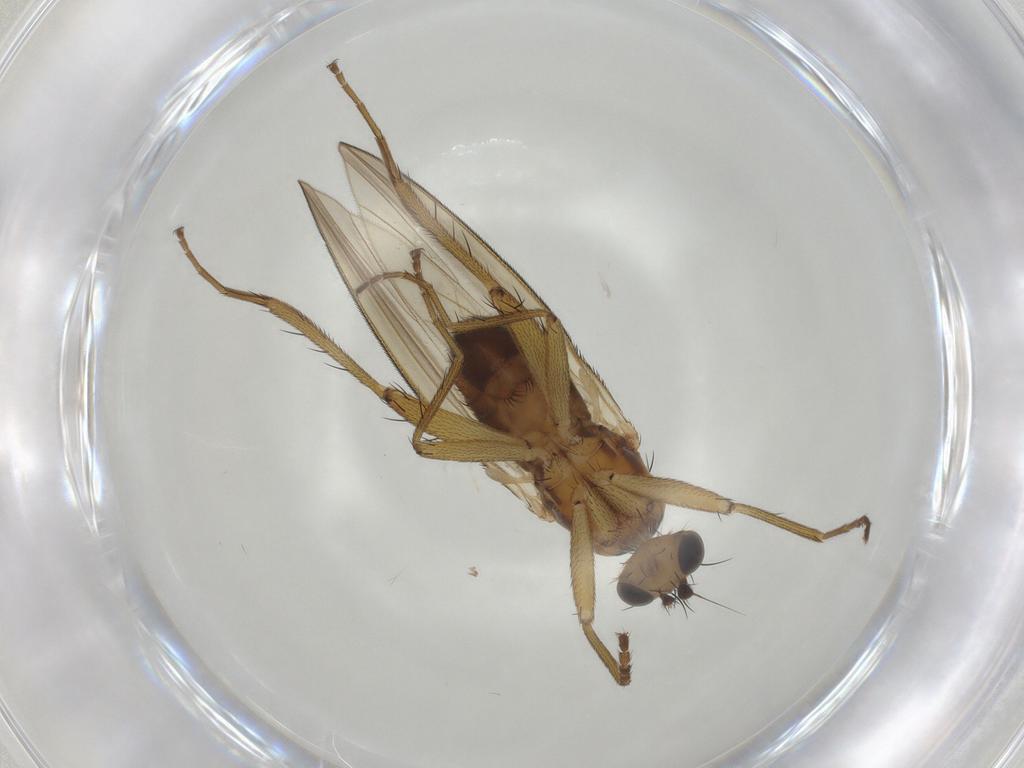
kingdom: Animalia
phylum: Arthropoda
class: Insecta
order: Diptera
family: Lonchopteridae
